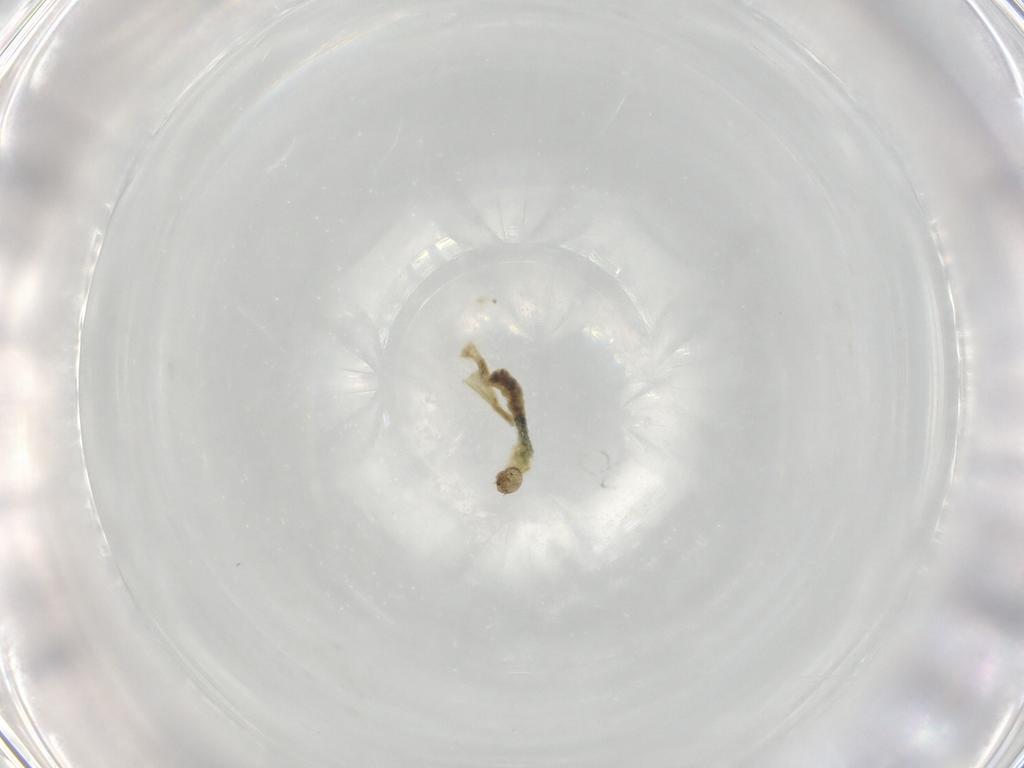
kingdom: Animalia
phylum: Arthropoda
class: Insecta
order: Diptera
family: Chironomidae
